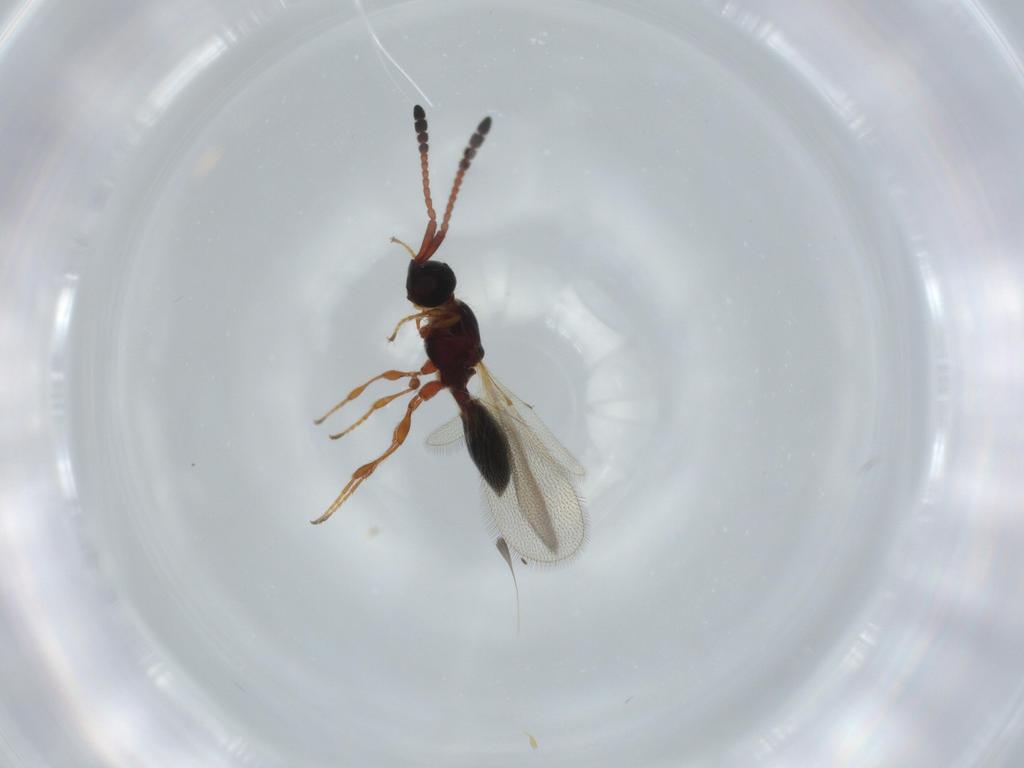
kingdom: Animalia
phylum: Arthropoda
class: Insecta
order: Hymenoptera
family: Diapriidae
